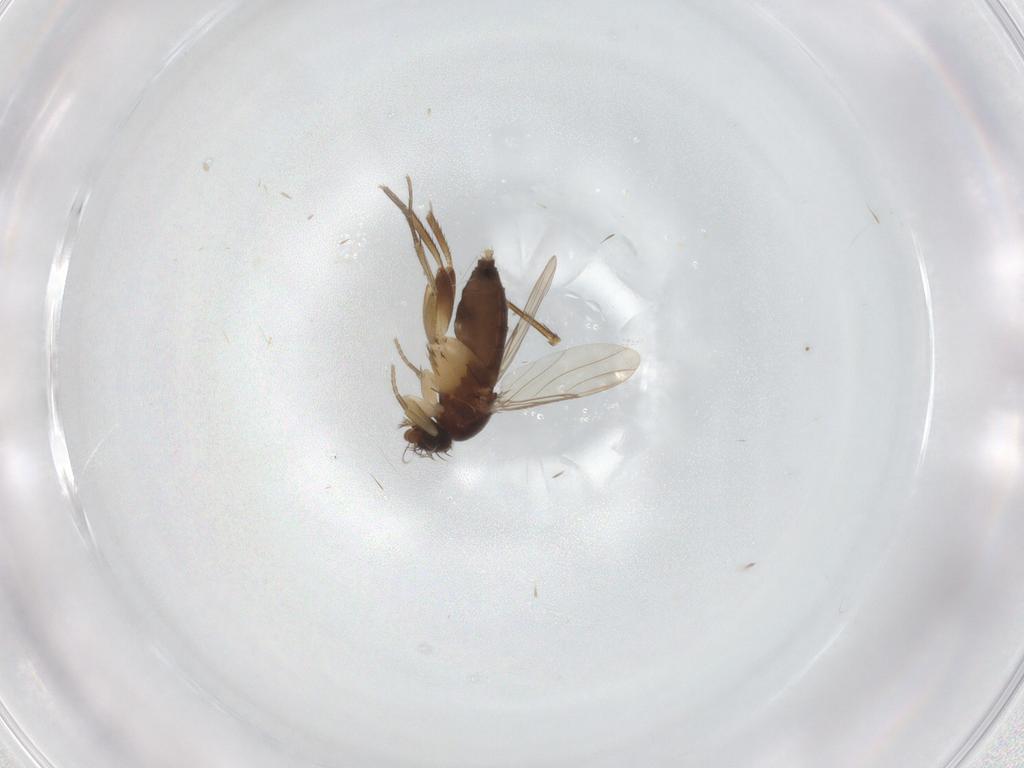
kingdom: Animalia
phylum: Arthropoda
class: Insecta
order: Diptera
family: Phoridae
